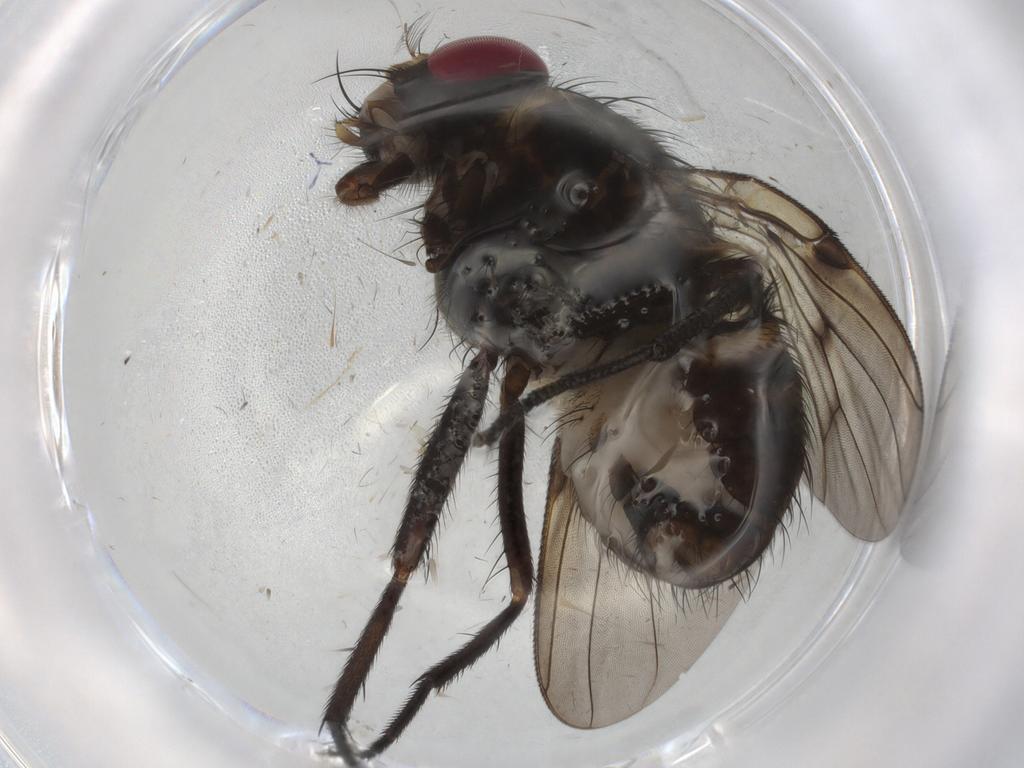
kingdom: Animalia
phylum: Arthropoda
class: Insecta
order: Diptera
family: Muscidae
